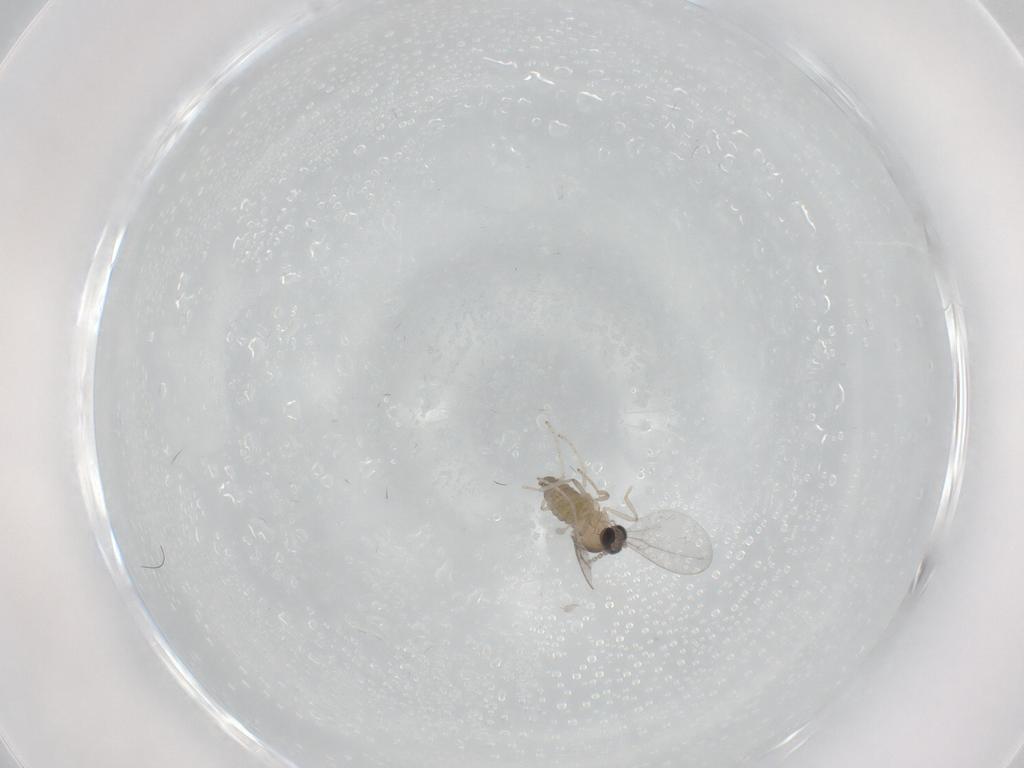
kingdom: Animalia
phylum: Arthropoda
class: Insecta
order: Diptera
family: Cecidomyiidae
